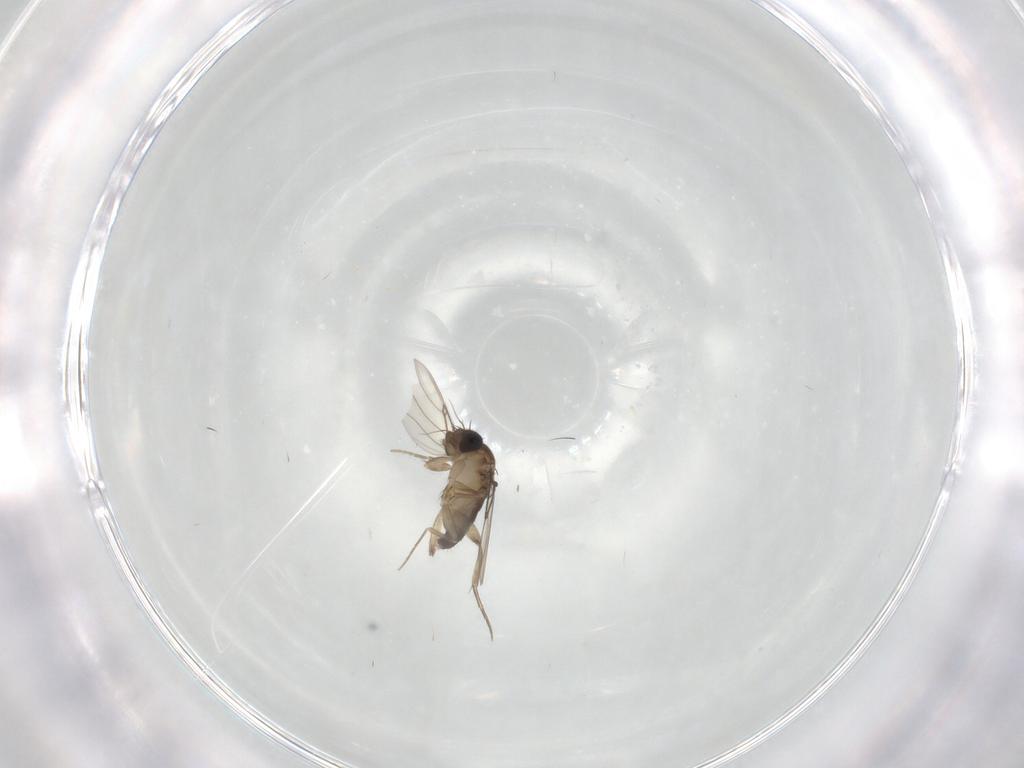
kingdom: Animalia
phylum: Arthropoda
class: Insecta
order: Diptera
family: Phoridae
